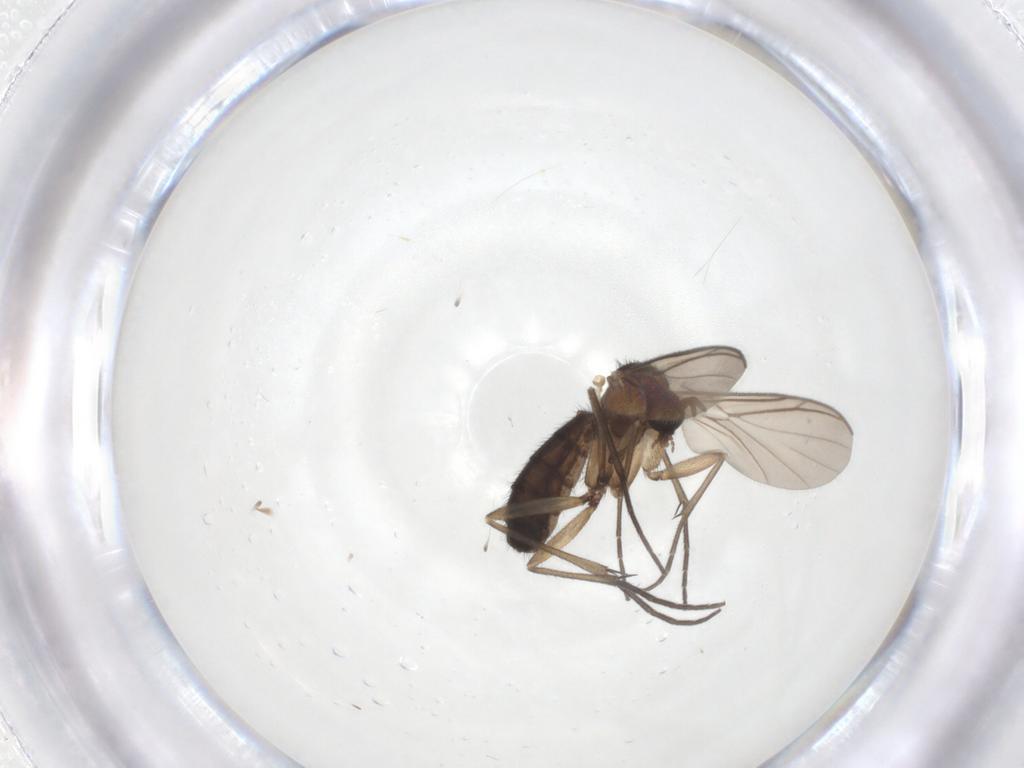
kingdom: Animalia
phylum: Arthropoda
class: Insecta
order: Diptera
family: Keroplatidae
